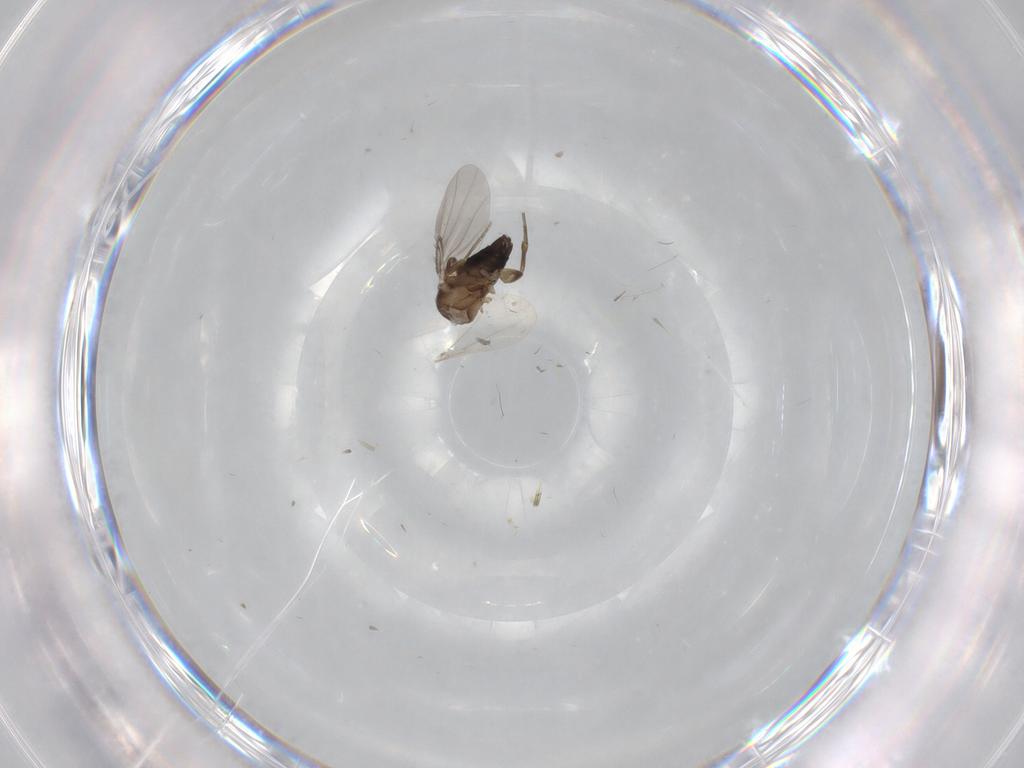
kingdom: Animalia
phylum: Arthropoda
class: Insecta
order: Diptera
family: Phoridae
